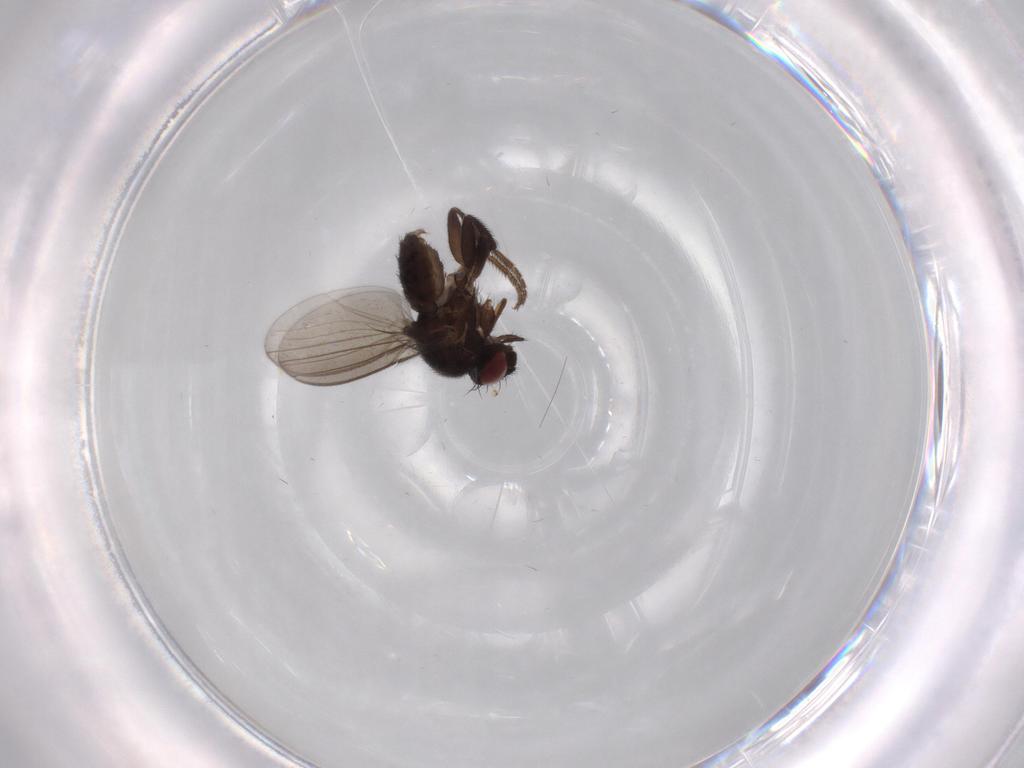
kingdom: Animalia
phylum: Arthropoda
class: Insecta
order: Diptera
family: Milichiidae
